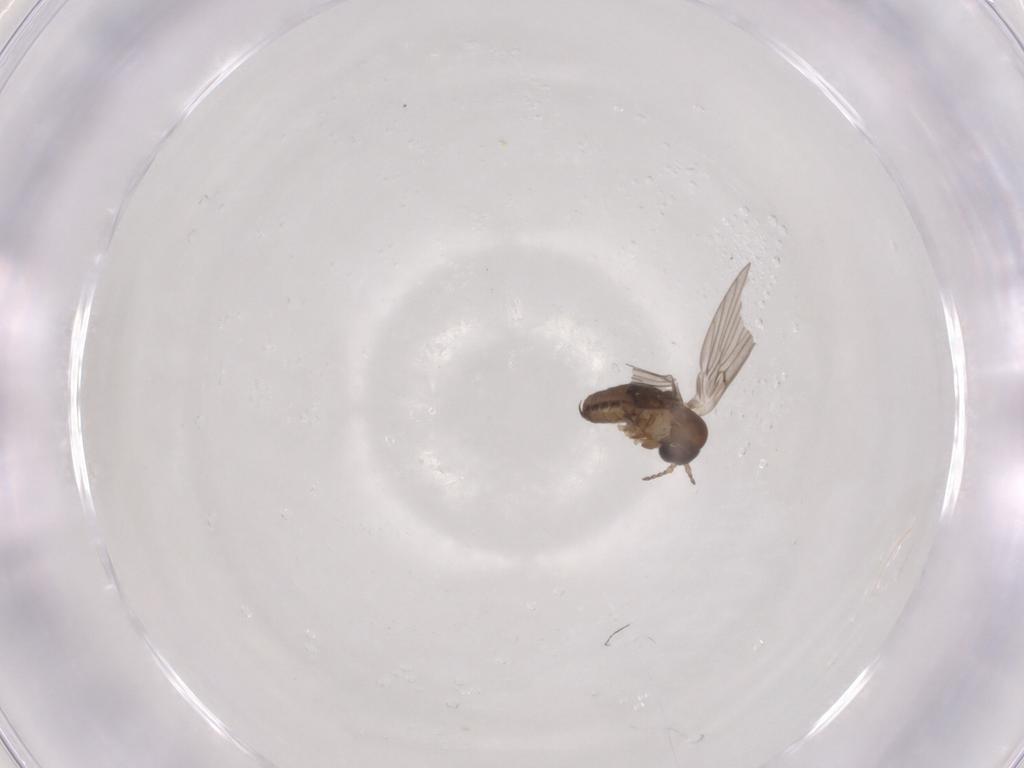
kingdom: Animalia
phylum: Arthropoda
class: Insecta
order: Diptera
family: Psychodidae
